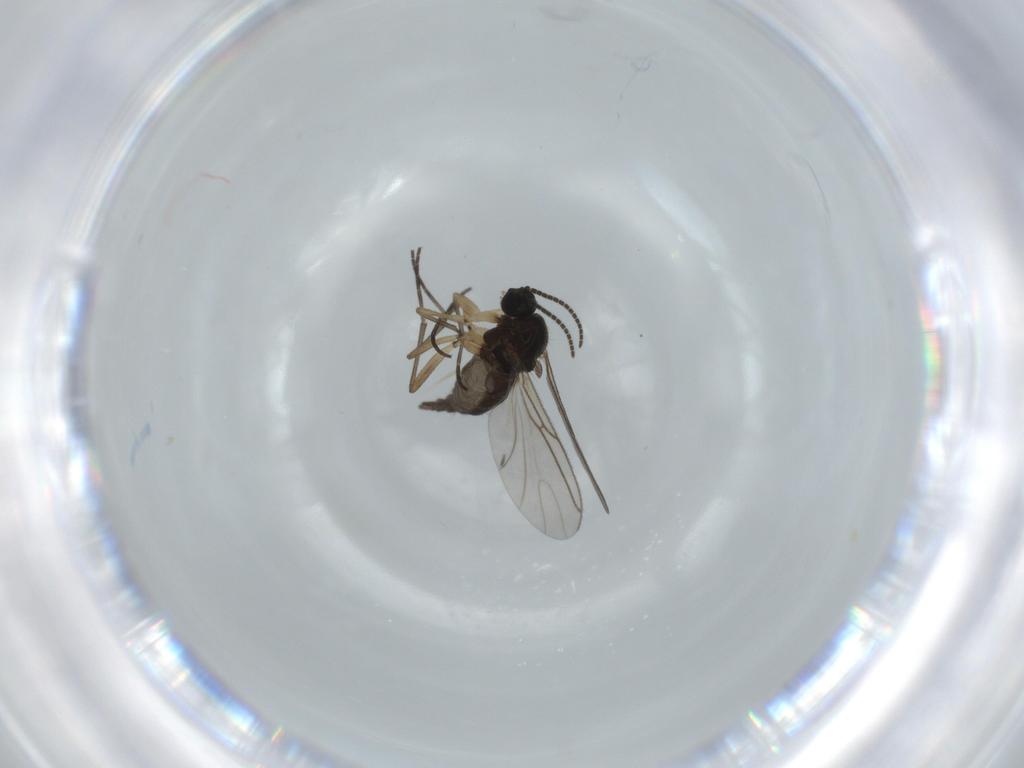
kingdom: Animalia
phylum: Arthropoda
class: Insecta
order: Diptera
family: Sciaridae
